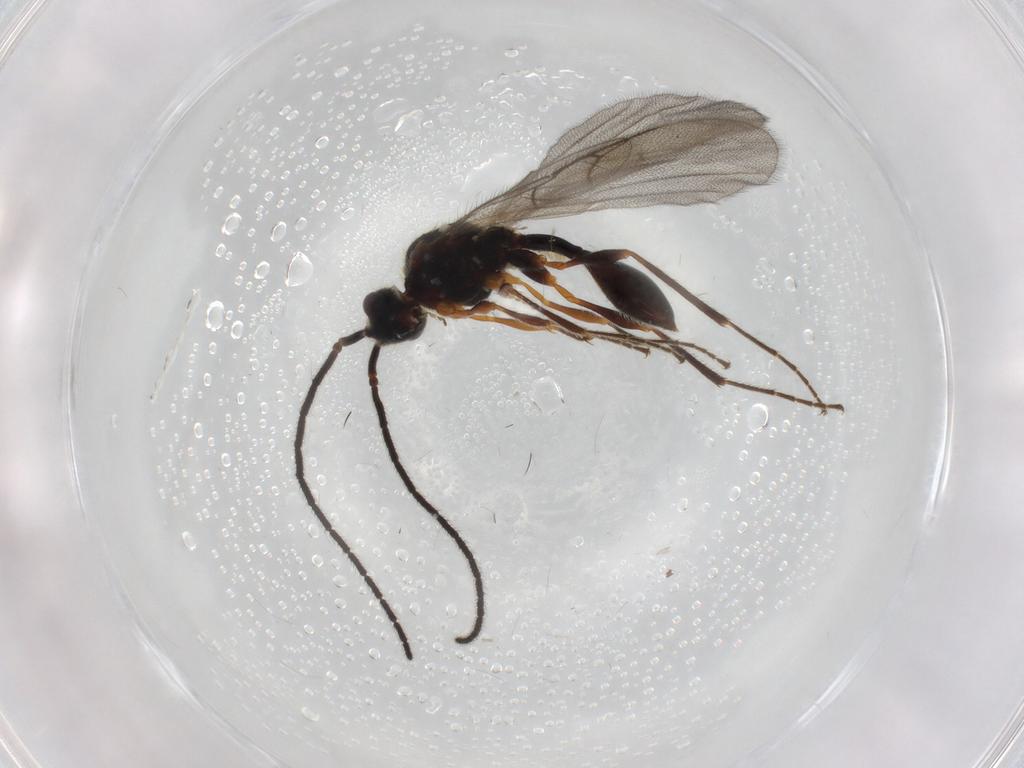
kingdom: Animalia
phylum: Arthropoda
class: Insecta
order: Hymenoptera
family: Diapriidae
